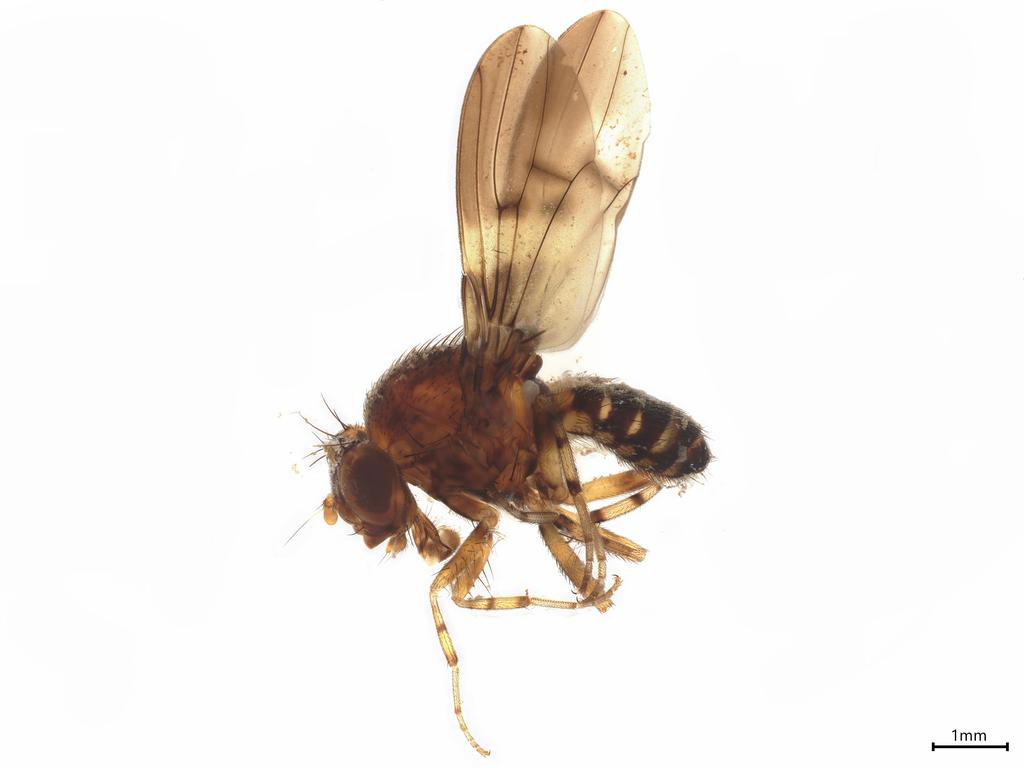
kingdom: Animalia
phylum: Arthropoda
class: Insecta
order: Diptera
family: Drosophilidae
